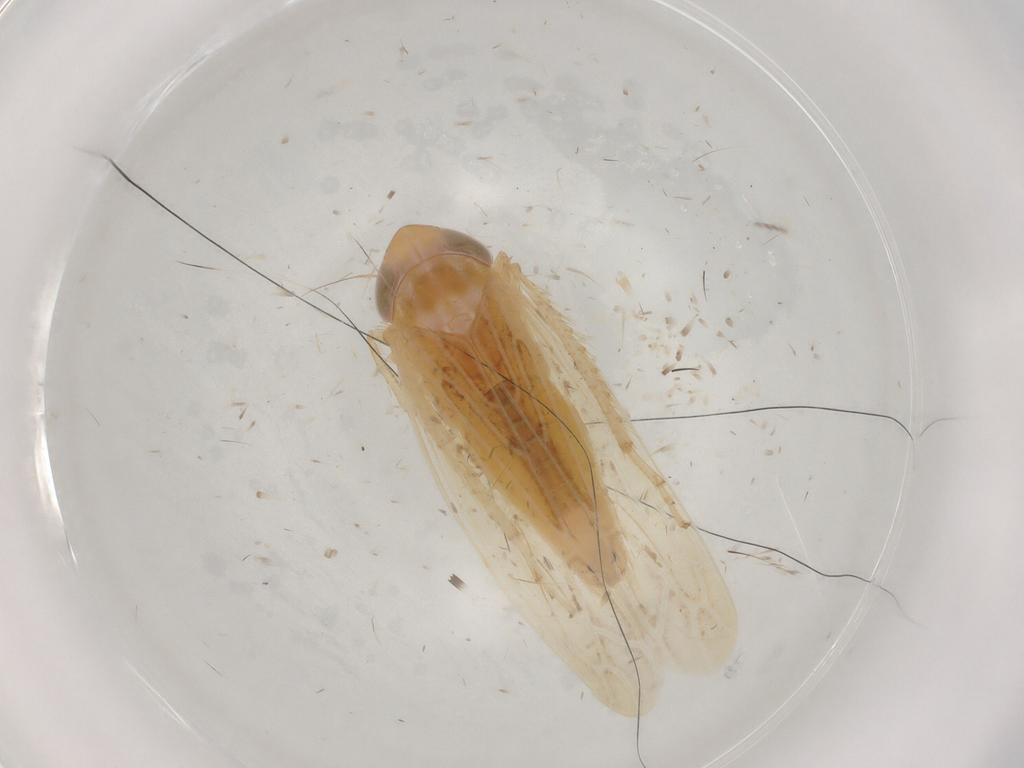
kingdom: Animalia
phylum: Arthropoda
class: Insecta
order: Hemiptera
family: Cicadellidae
